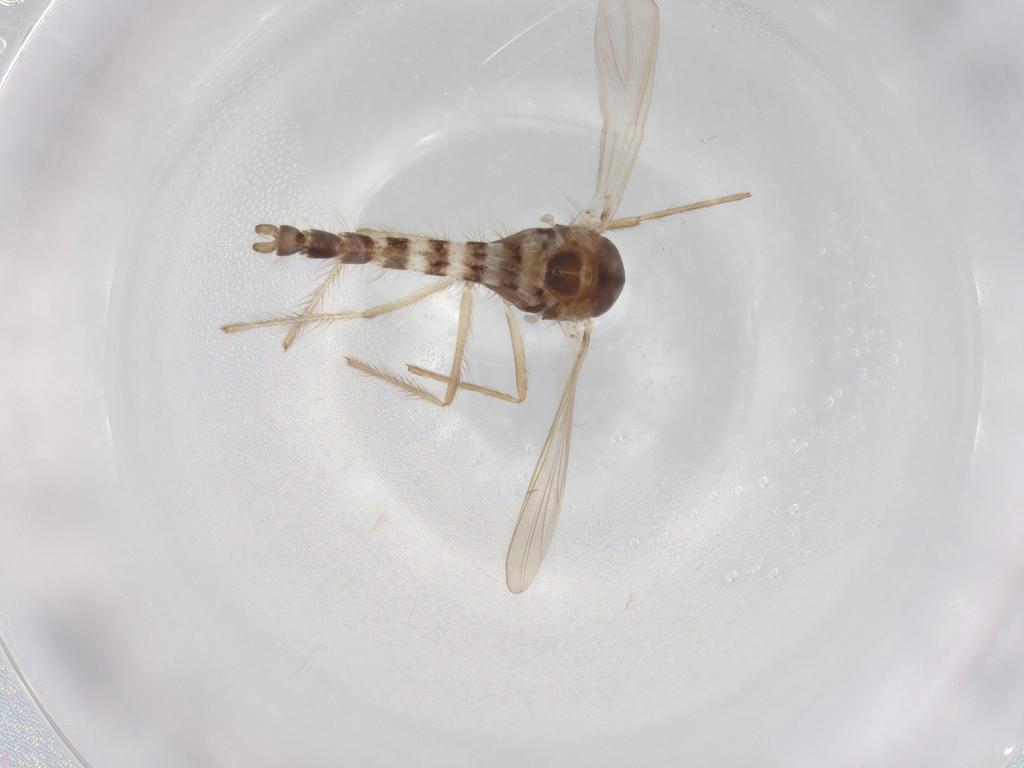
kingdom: Animalia
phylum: Arthropoda
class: Insecta
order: Diptera
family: Chironomidae
